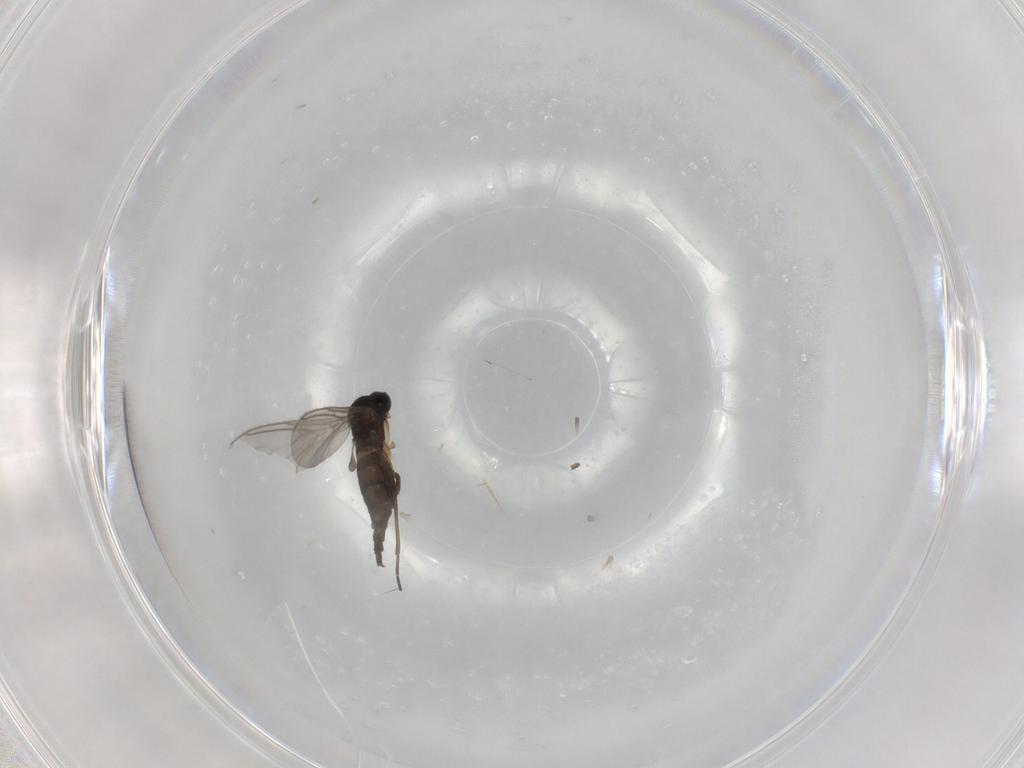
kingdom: Animalia
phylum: Arthropoda
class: Insecta
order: Diptera
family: Sciaridae
